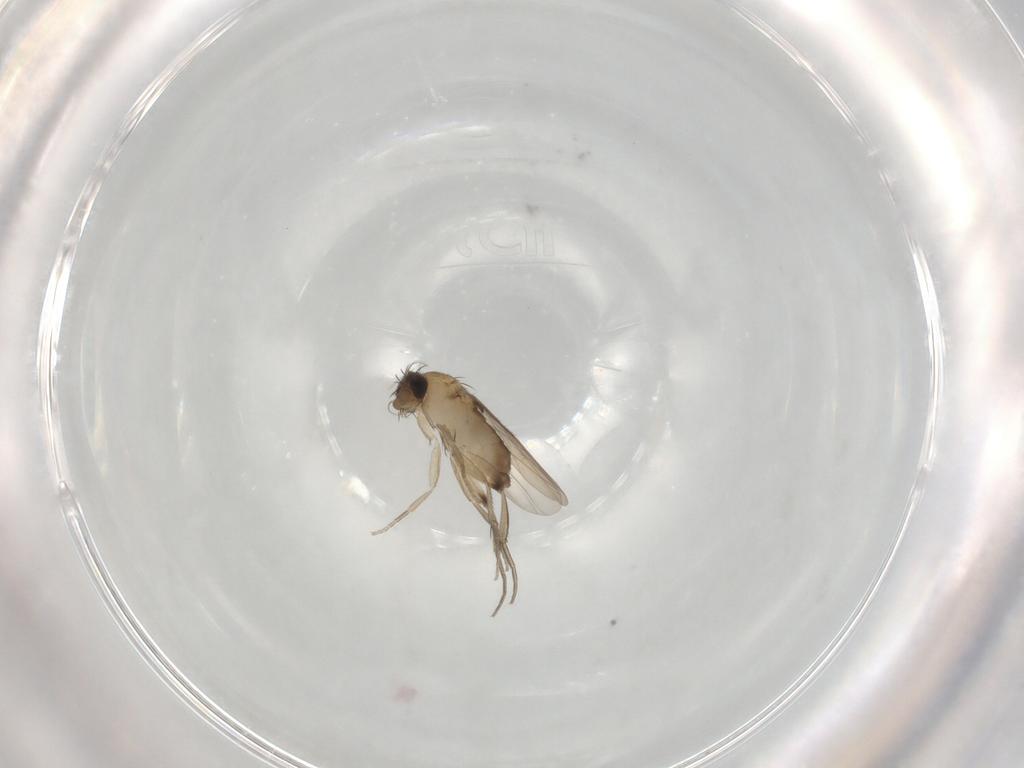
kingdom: Animalia
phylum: Arthropoda
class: Insecta
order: Diptera
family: Phoridae
